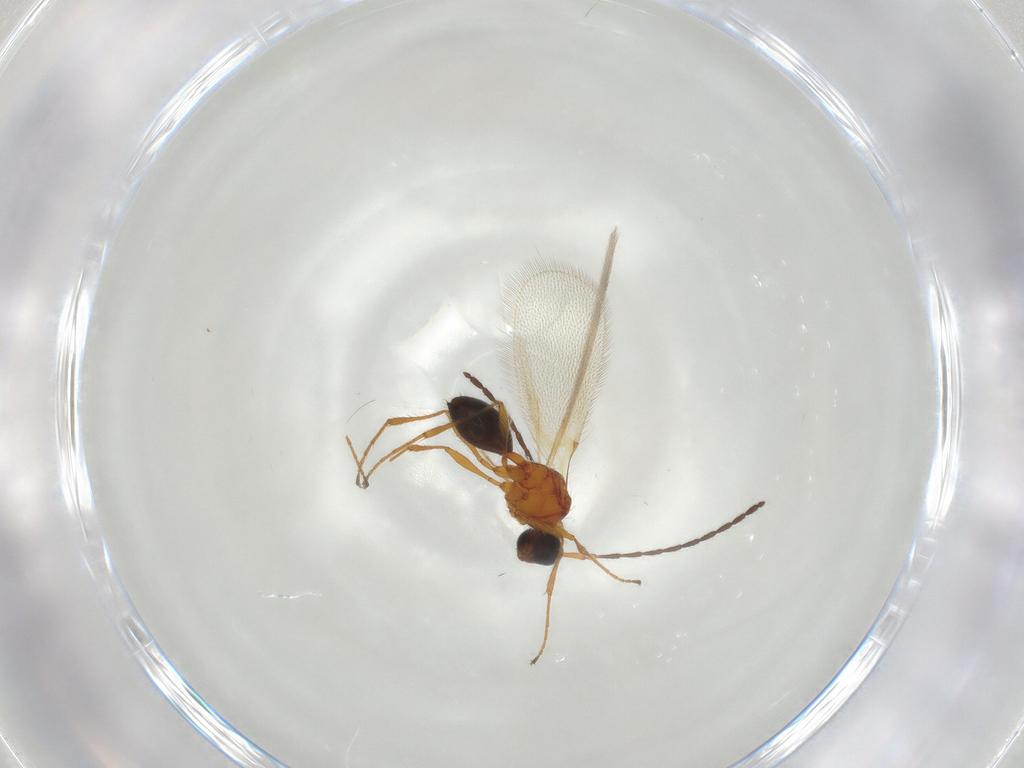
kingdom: Animalia
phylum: Arthropoda
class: Insecta
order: Hymenoptera
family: Diapriidae
